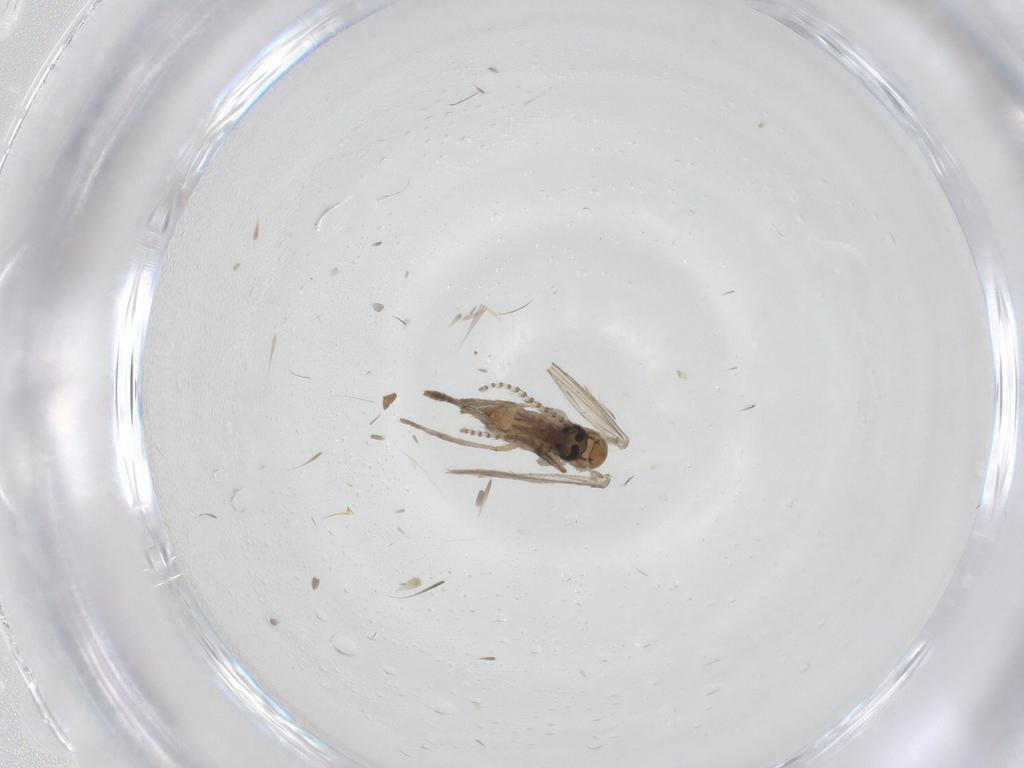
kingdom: Animalia
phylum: Arthropoda
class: Insecta
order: Diptera
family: Psychodidae
